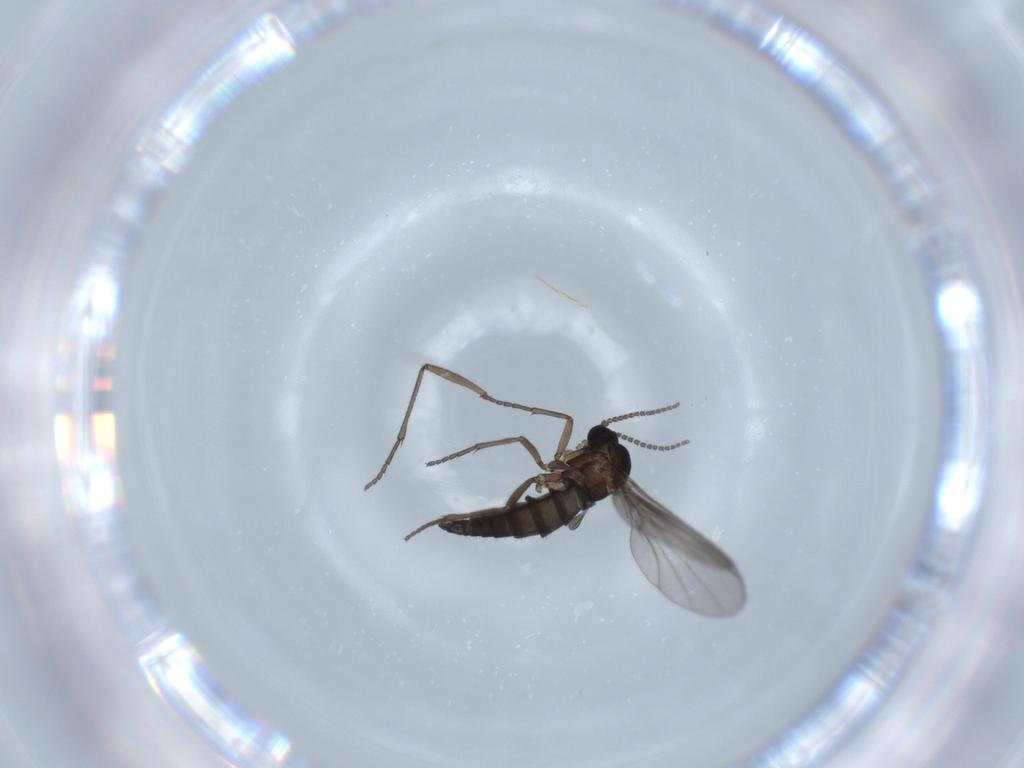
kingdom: Animalia
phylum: Arthropoda
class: Insecta
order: Diptera
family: Sciaridae
